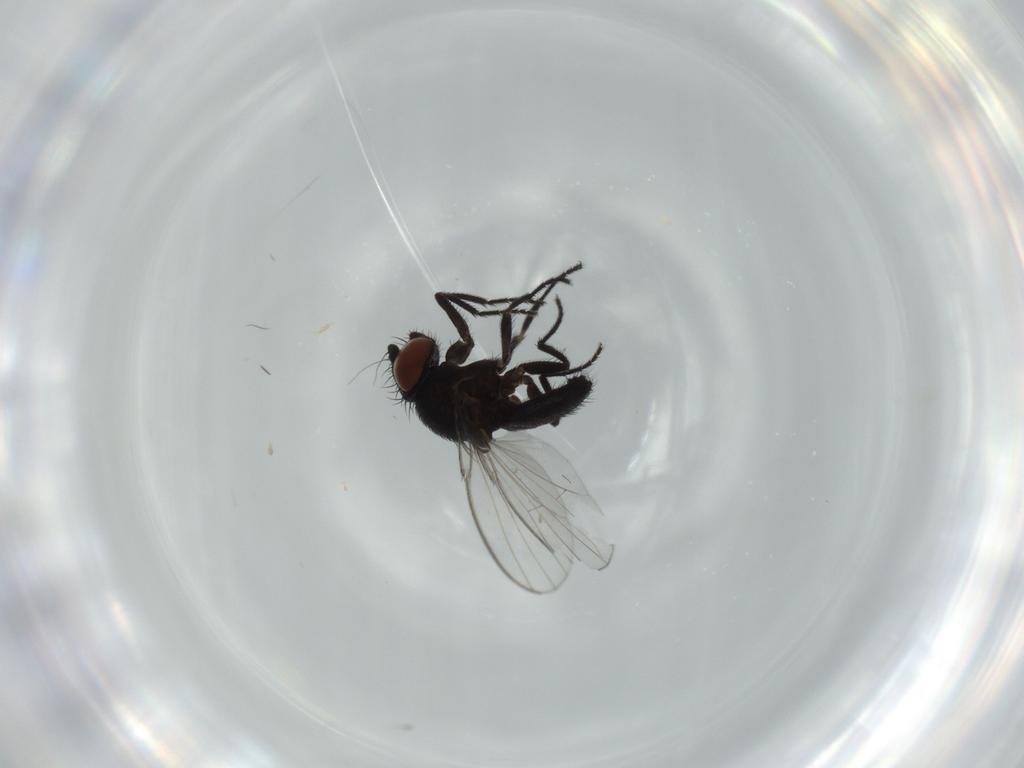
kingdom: Animalia
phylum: Arthropoda
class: Insecta
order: Diptera
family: Milichiidae
